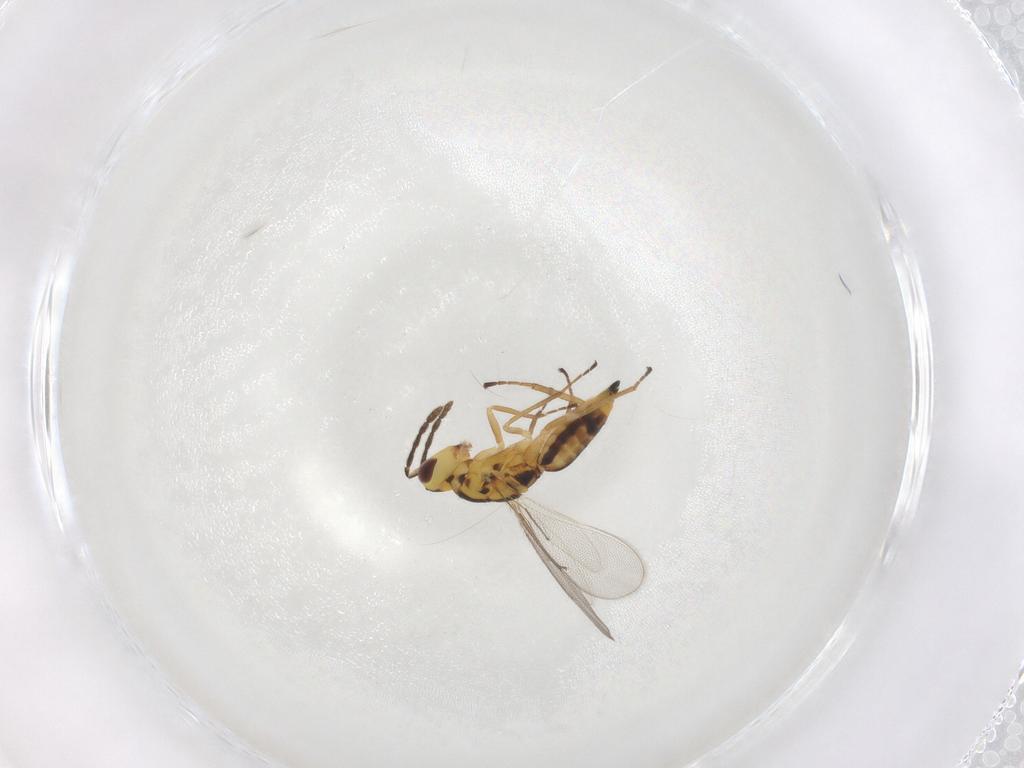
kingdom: Animalia
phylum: Arthropoda
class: Insecta
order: Hymenoptera
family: Eulophidae
